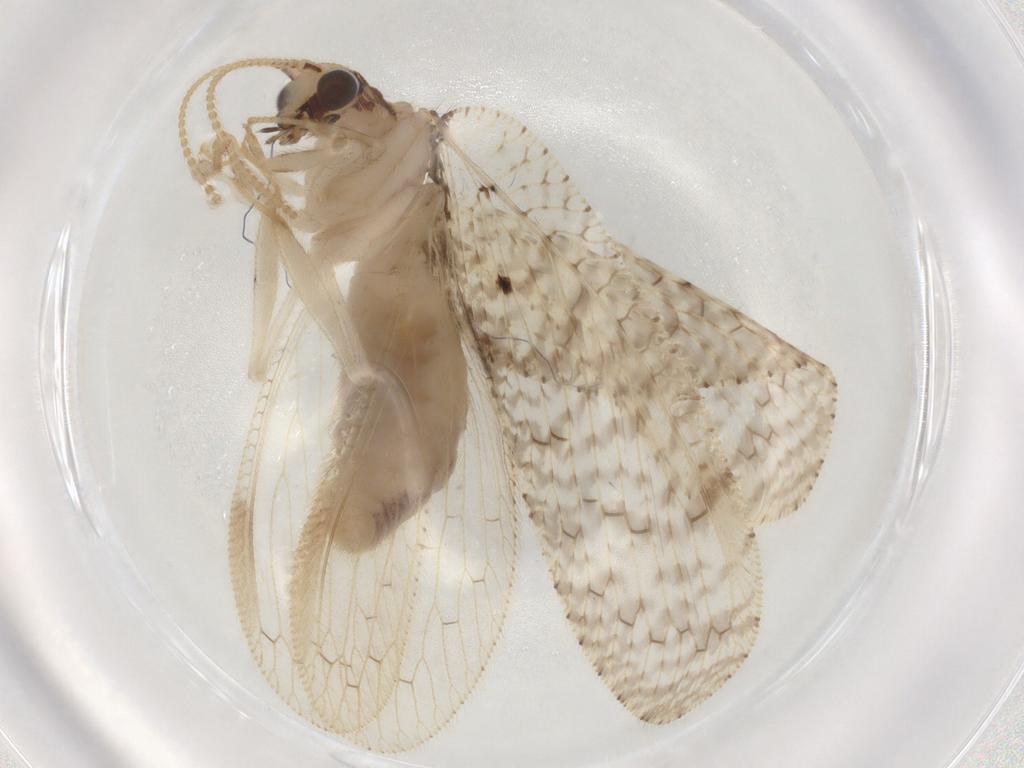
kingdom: Animalia
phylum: Arthropoda
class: Insecta
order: Neuroptera
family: Hemerobiidae
